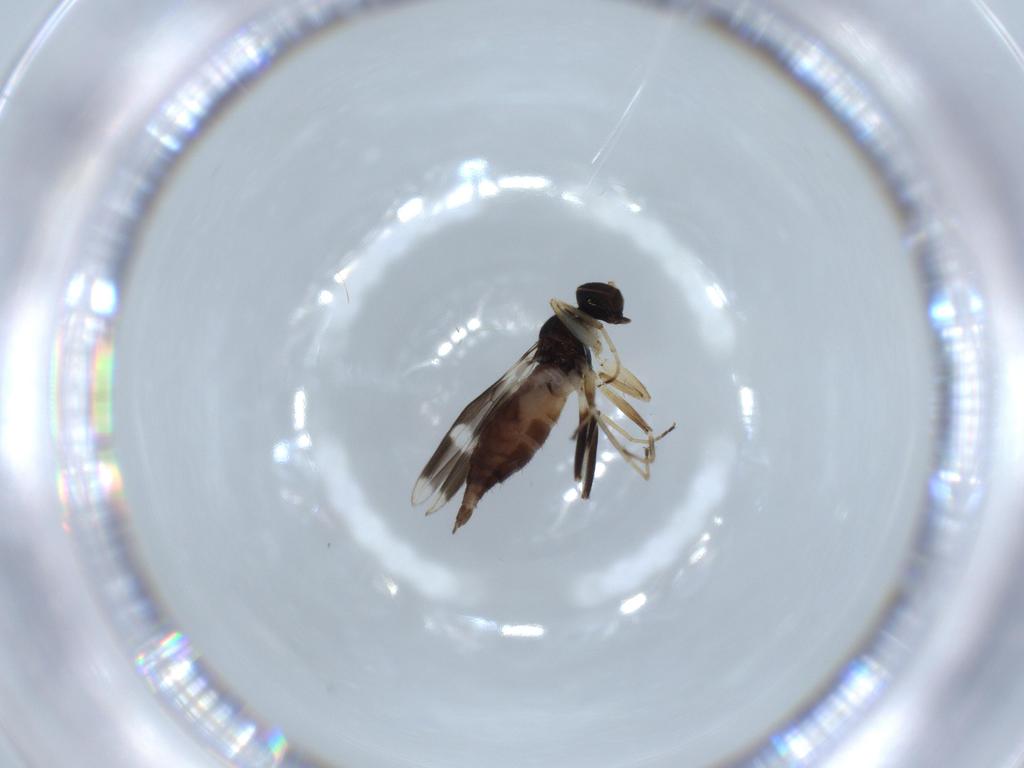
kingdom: Animalia
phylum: Arthropoda
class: Insecta
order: Diptera
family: Hybotidae
